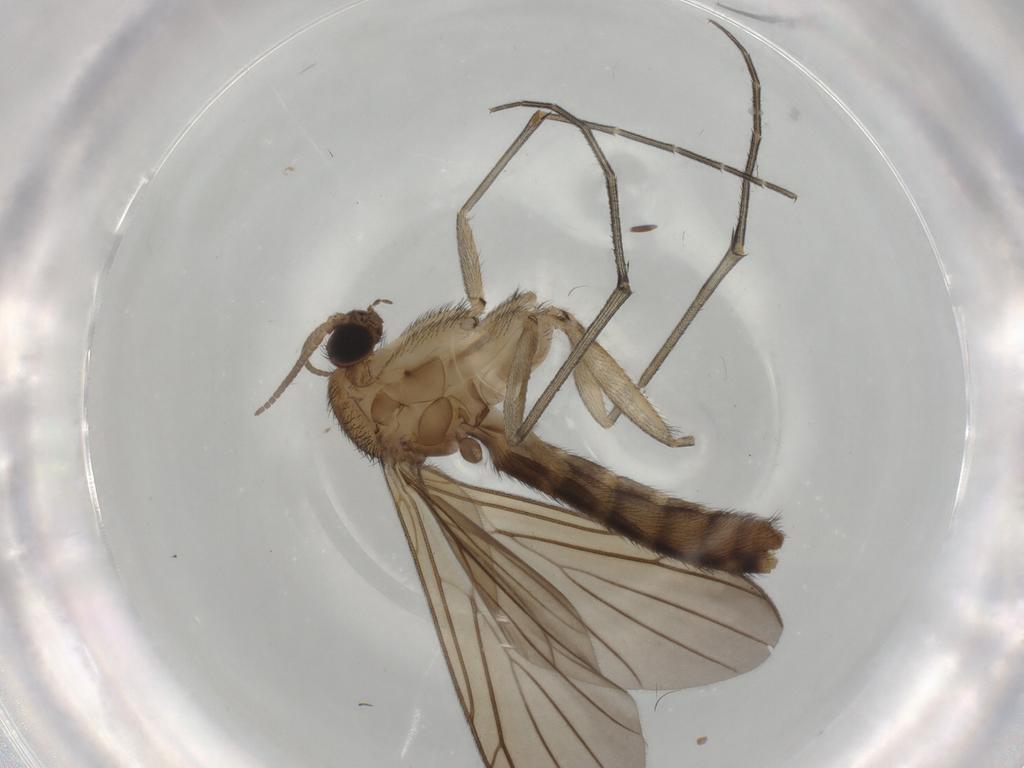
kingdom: Animalia
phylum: Arthropoda
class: Insecta
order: Diptera
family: Keroplatidae
